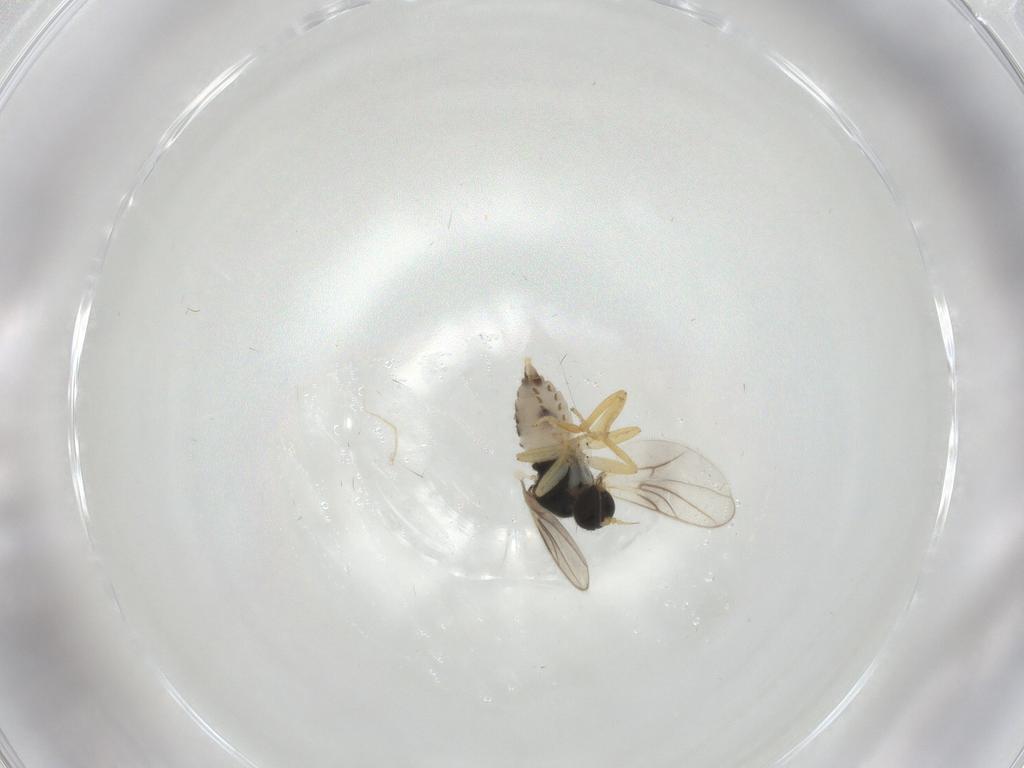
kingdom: Animalia
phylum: Arthropoda
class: Insecta
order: Diptera
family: Hybotidae
